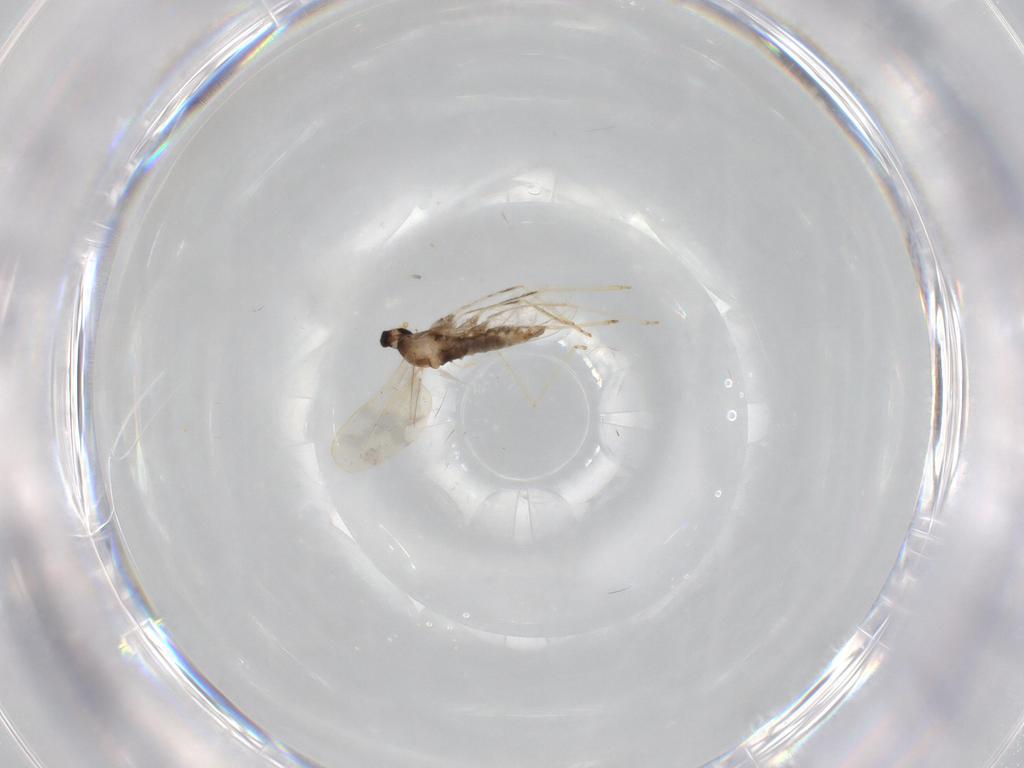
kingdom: Animalia
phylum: Arthropoda
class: Insecta
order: Diptera
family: Cecidomyiidae
